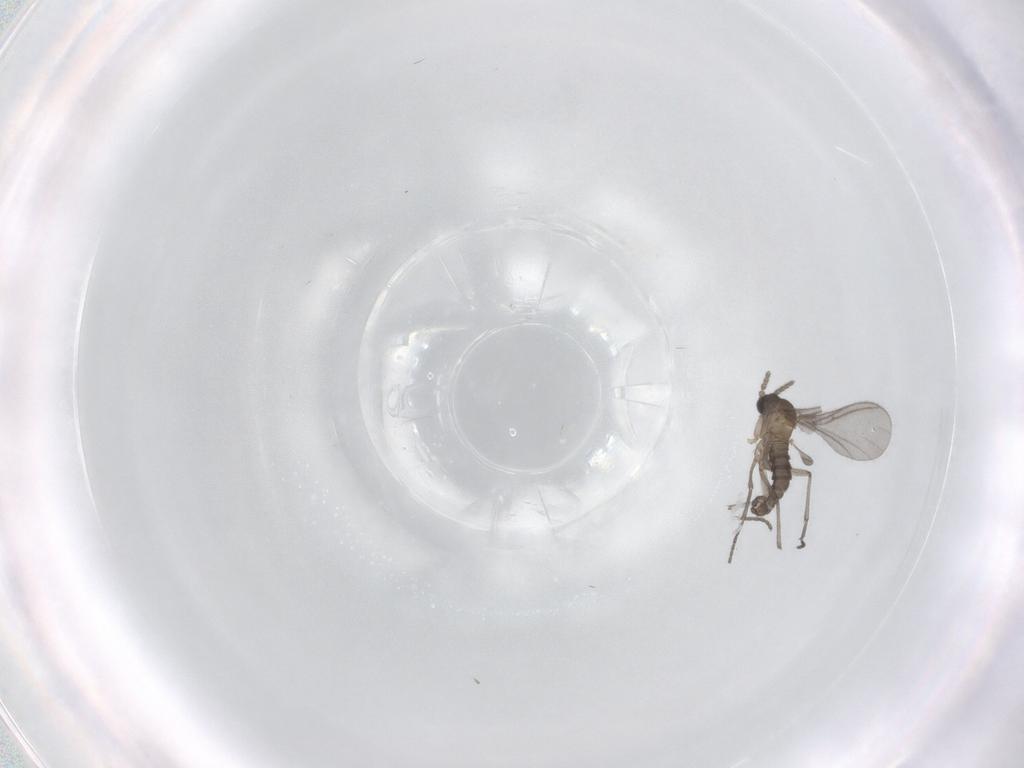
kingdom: Animalia
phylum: Arthropoda
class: Insecta
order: Diptera
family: Sciaridae
